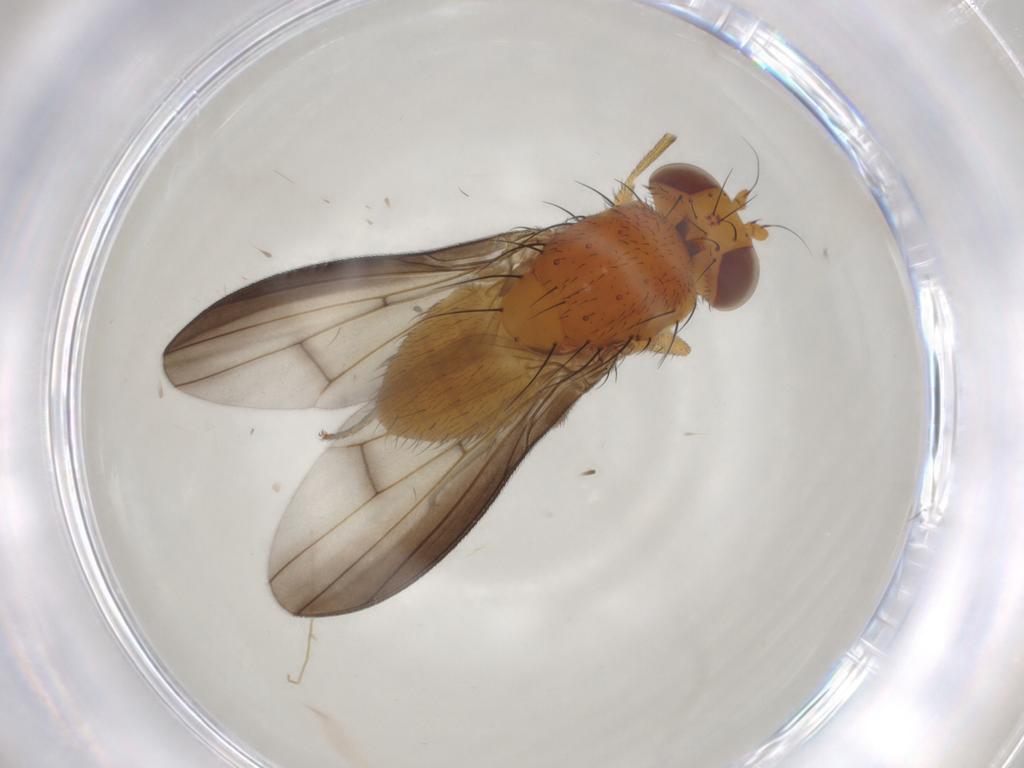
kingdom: Animalia
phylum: Arthropoda
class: Insecta
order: Diptera
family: Lauxaniidae
